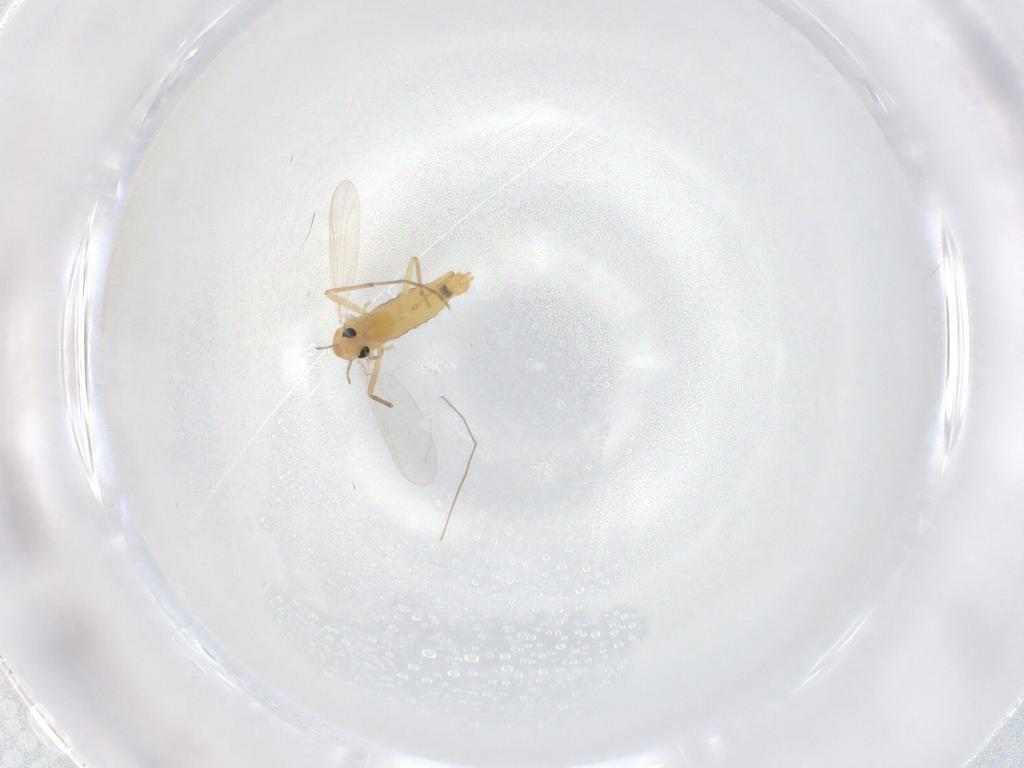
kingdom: Animalia
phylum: Arthropoda
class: Insecta
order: Diptera
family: Chironomidae
